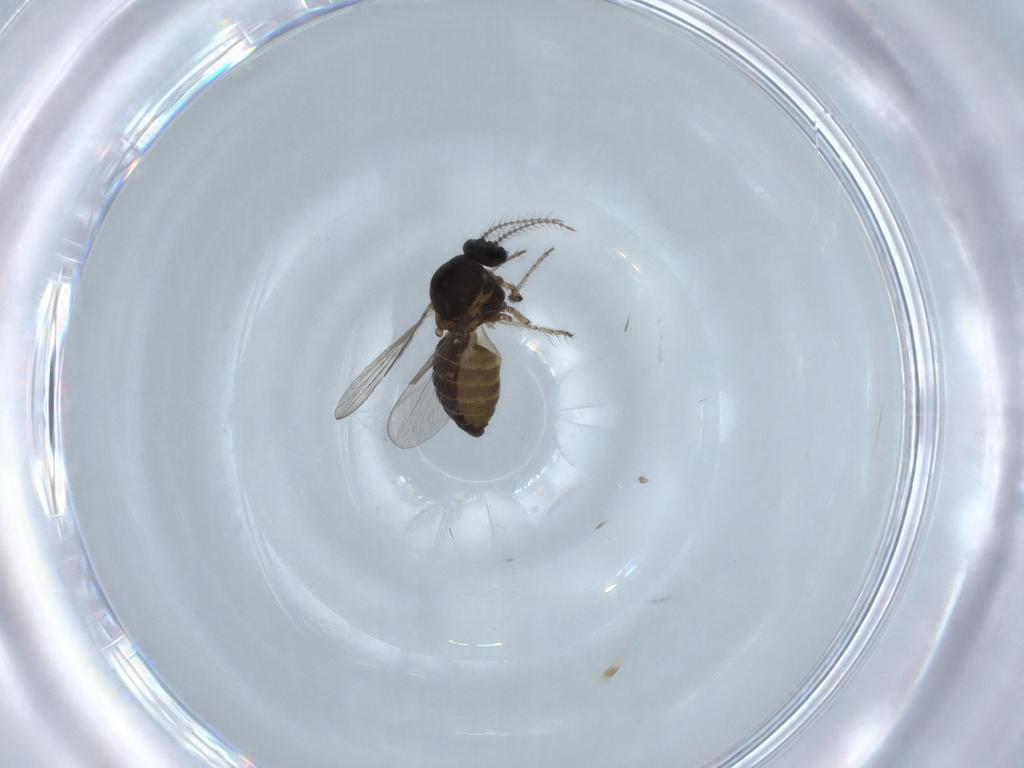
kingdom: Animalia
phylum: Arthropoda
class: Insecta
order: Diptera
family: Ceratopogonidae
